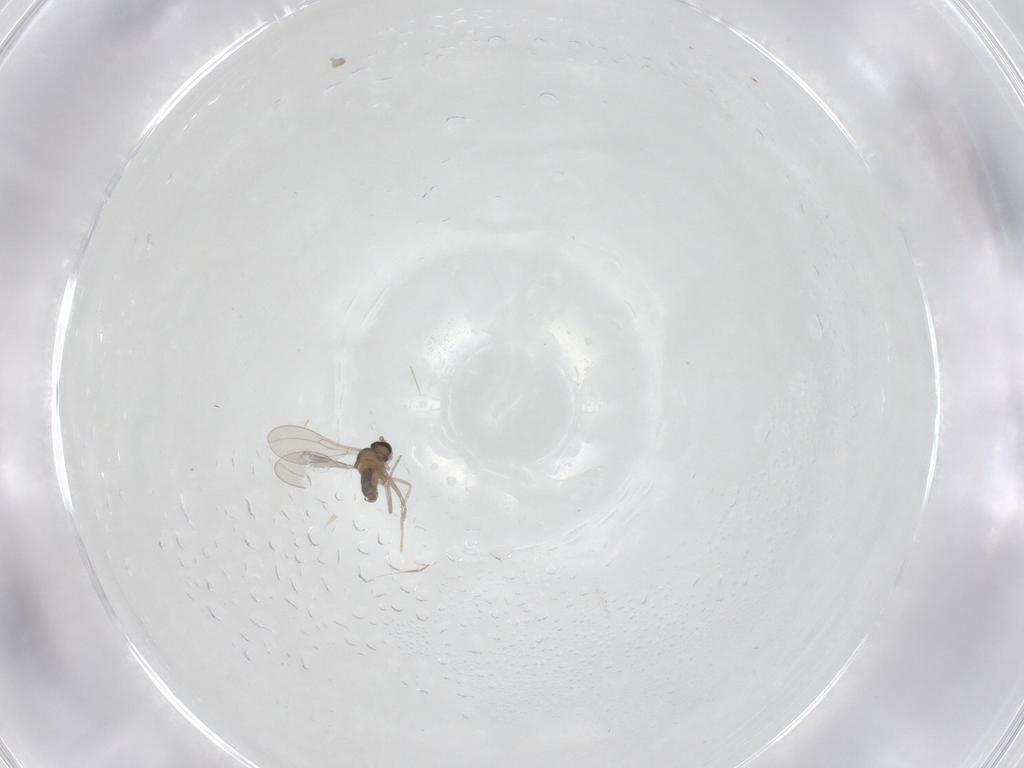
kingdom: Animalia
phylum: Arthropoda
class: Insecta
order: Diptera
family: Cecidomyiidae
